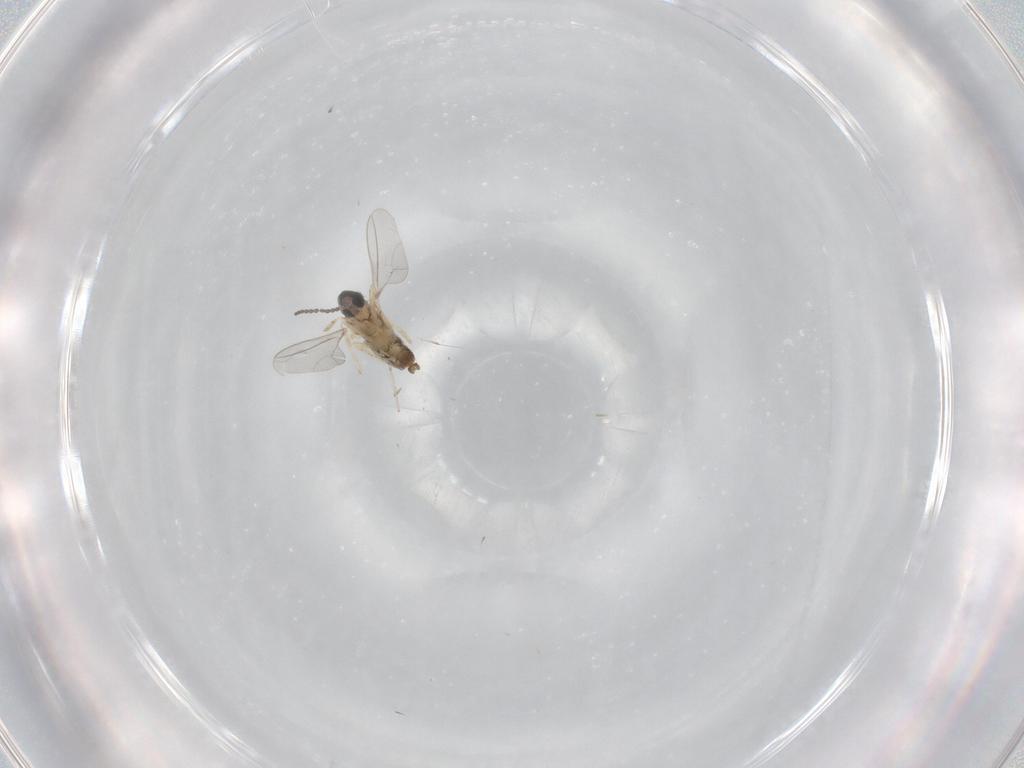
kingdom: Animalia
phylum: Arthropoda
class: Insecta
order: Diptera
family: Cecidomyiidae
